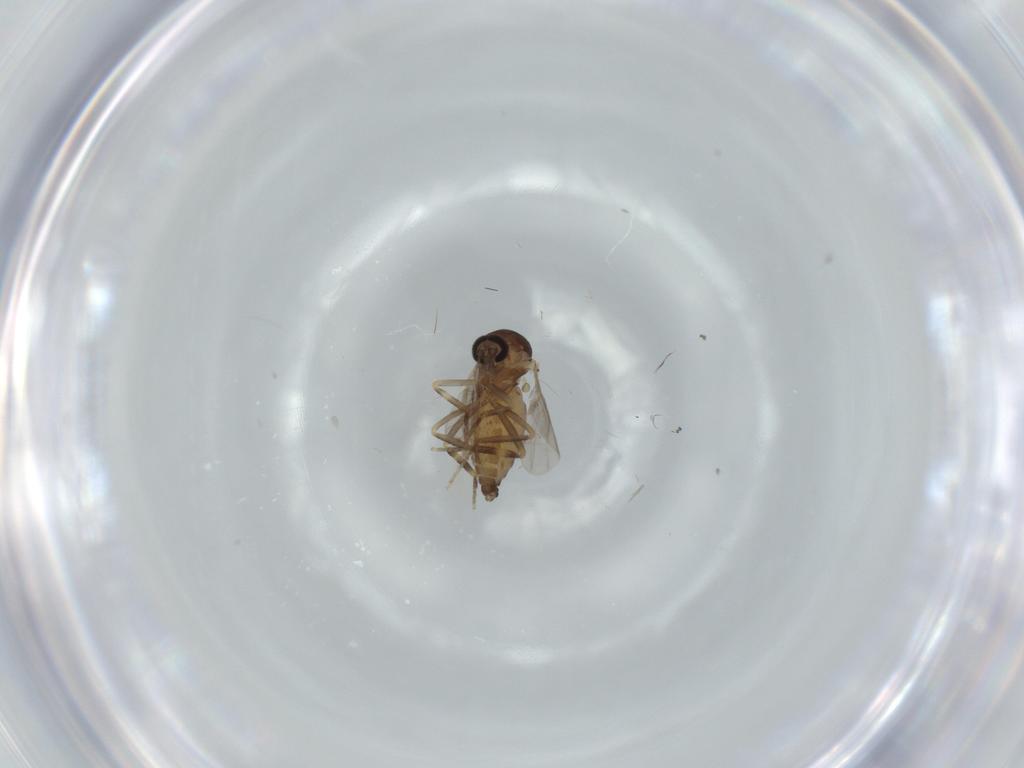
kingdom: Animalia
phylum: Arthropoda
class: Insecta
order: Diptera
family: Ceratopogonidae
